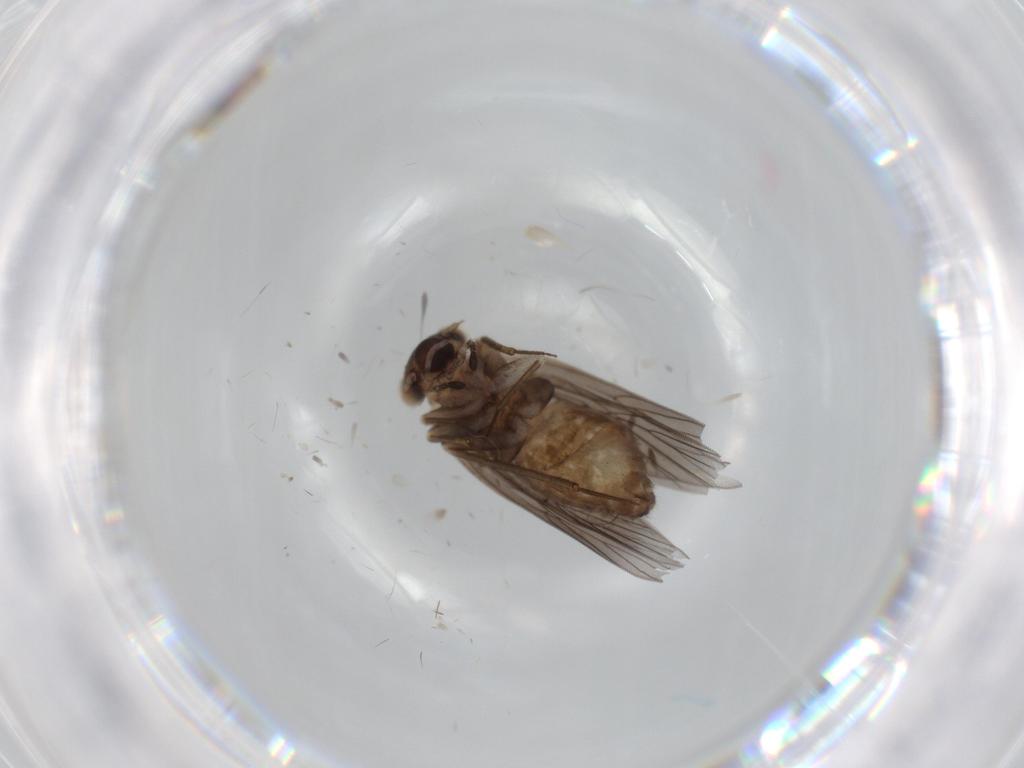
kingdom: Animalia
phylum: Arthropoda
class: Insecta
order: Psocodea
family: Lepidopsocidae
